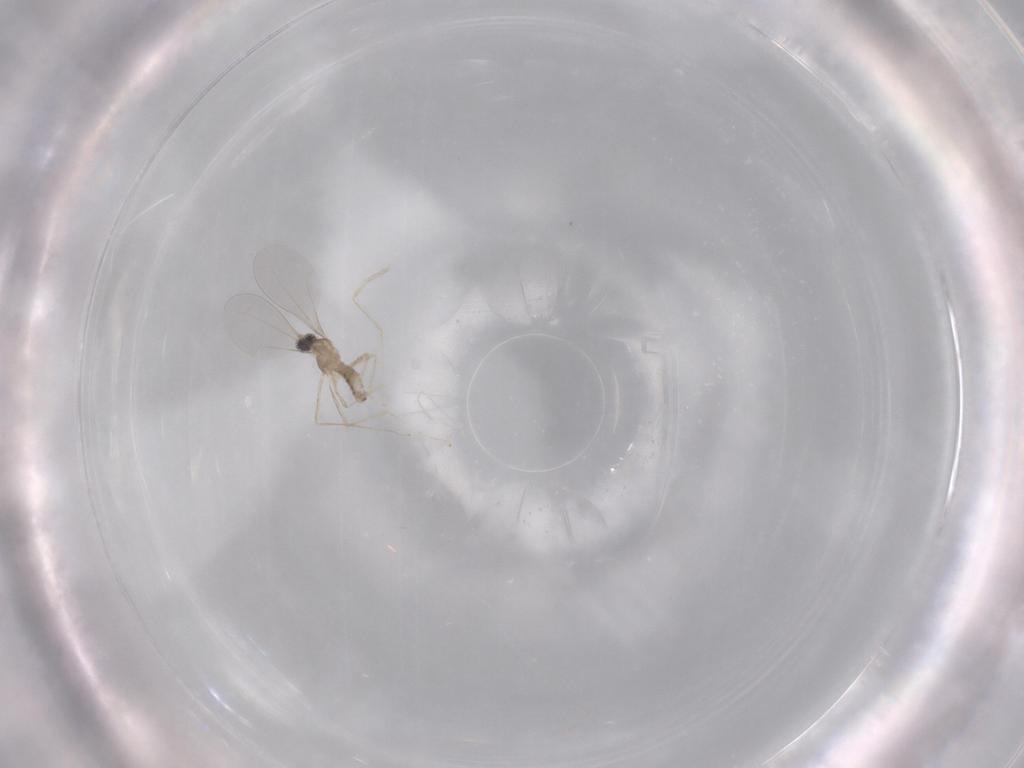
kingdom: Animalia
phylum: Arthropoda
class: Insecta
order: Diptera
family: Cecidomyiidae
